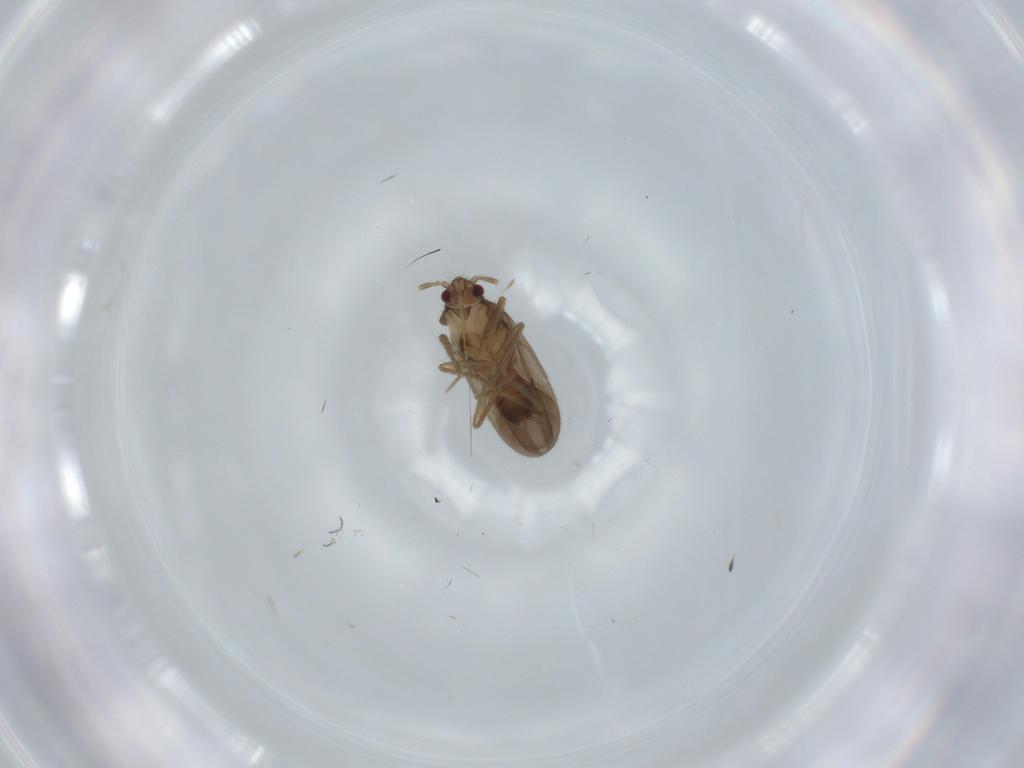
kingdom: Animalia
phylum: Arthropoda
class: Insecta
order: Hemiptera
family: Ceratocombidae
